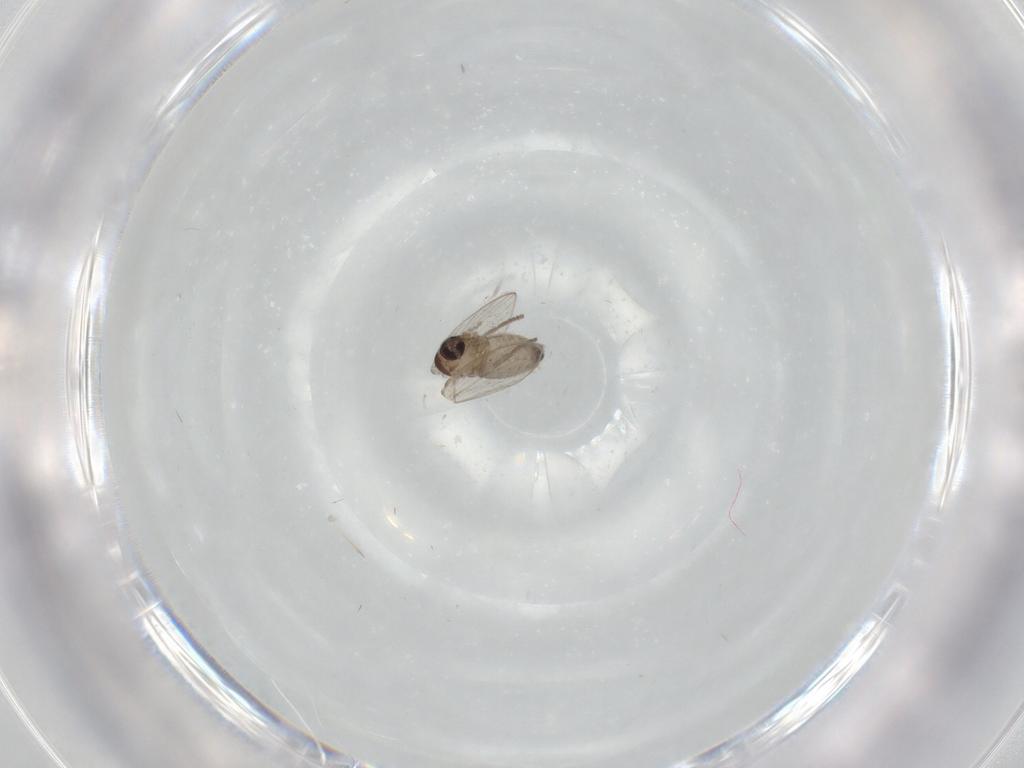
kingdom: Animalia
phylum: Arthropoda
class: Insecta
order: Diptera
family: Psychodidae
